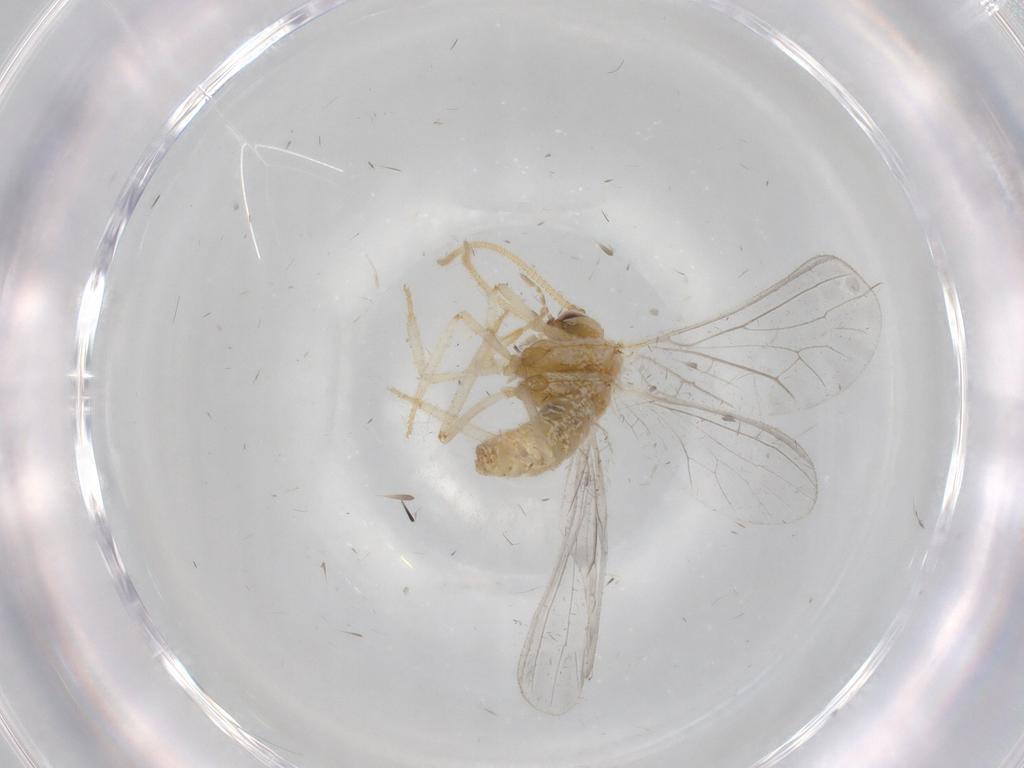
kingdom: Animalia
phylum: Arthropoda
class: Insecta
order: Neuroptera
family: Coniopterygidae
